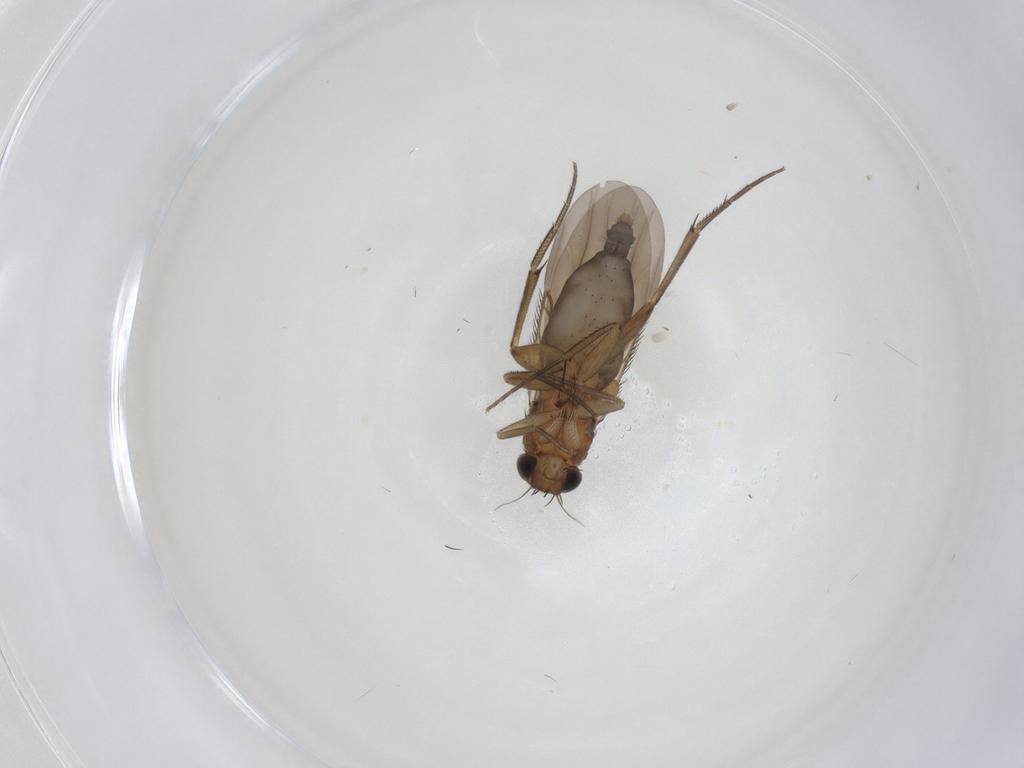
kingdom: Animalia
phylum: Arthropoda
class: Insecta
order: Diptera
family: Phoridae
